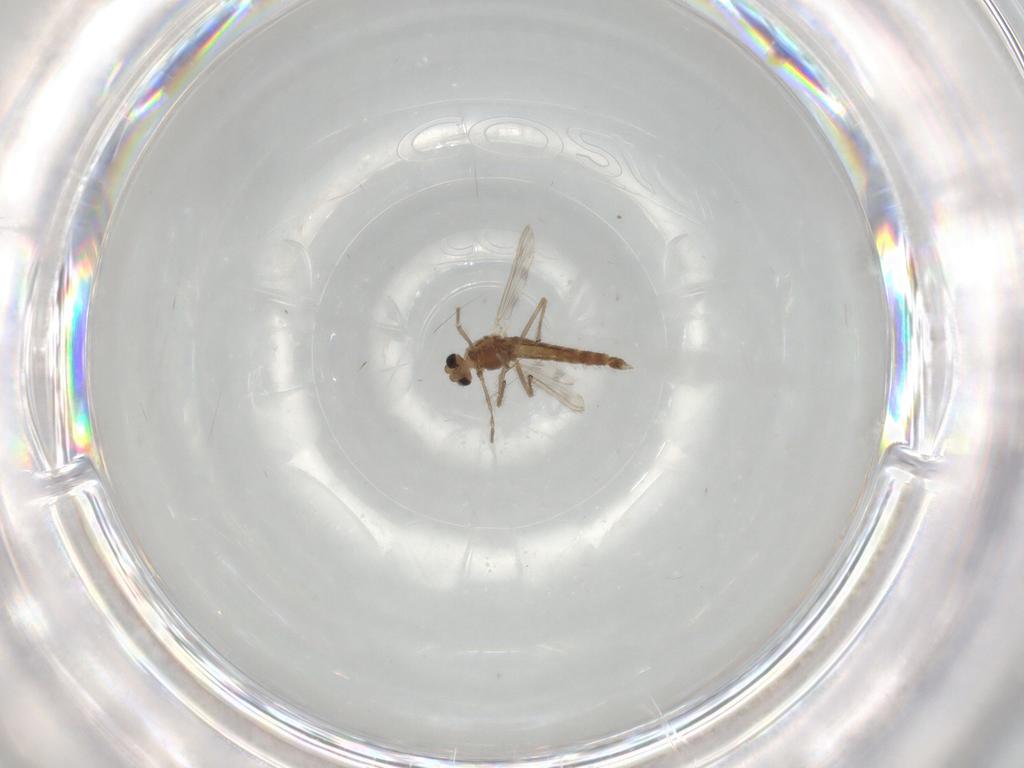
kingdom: Animalia
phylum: Arthropoda
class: Insecta
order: Diptera
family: Chironomidae
